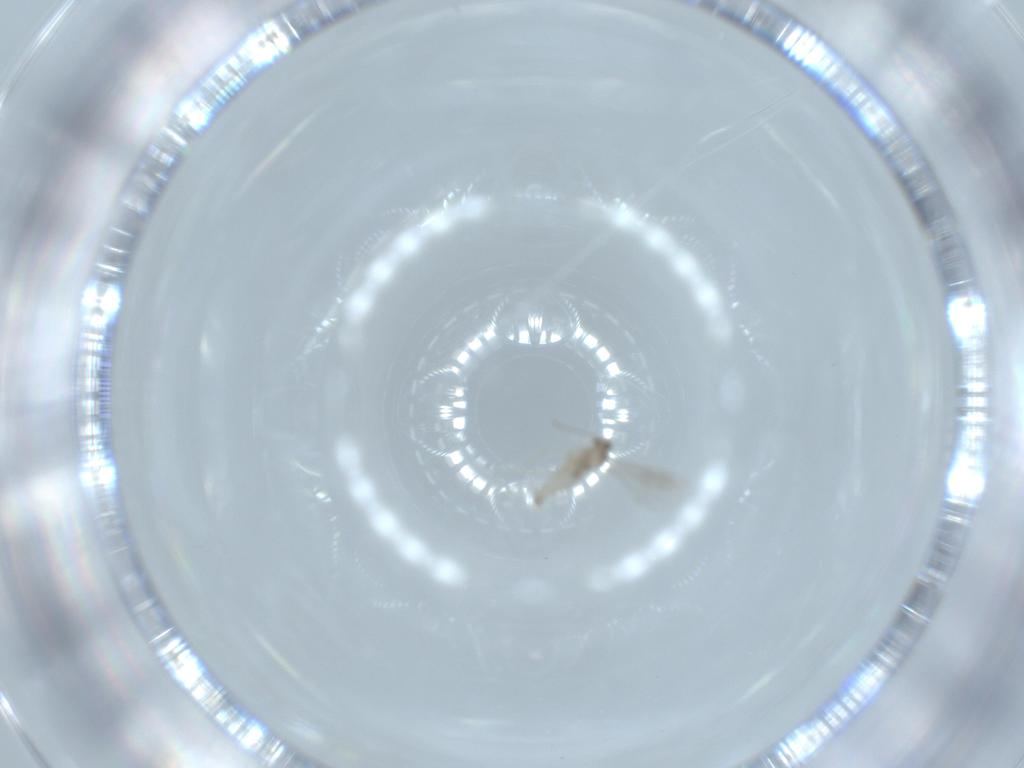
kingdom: Animalia
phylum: Arthropoda
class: Insecta
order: Diptera
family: Cecidomyiidae
